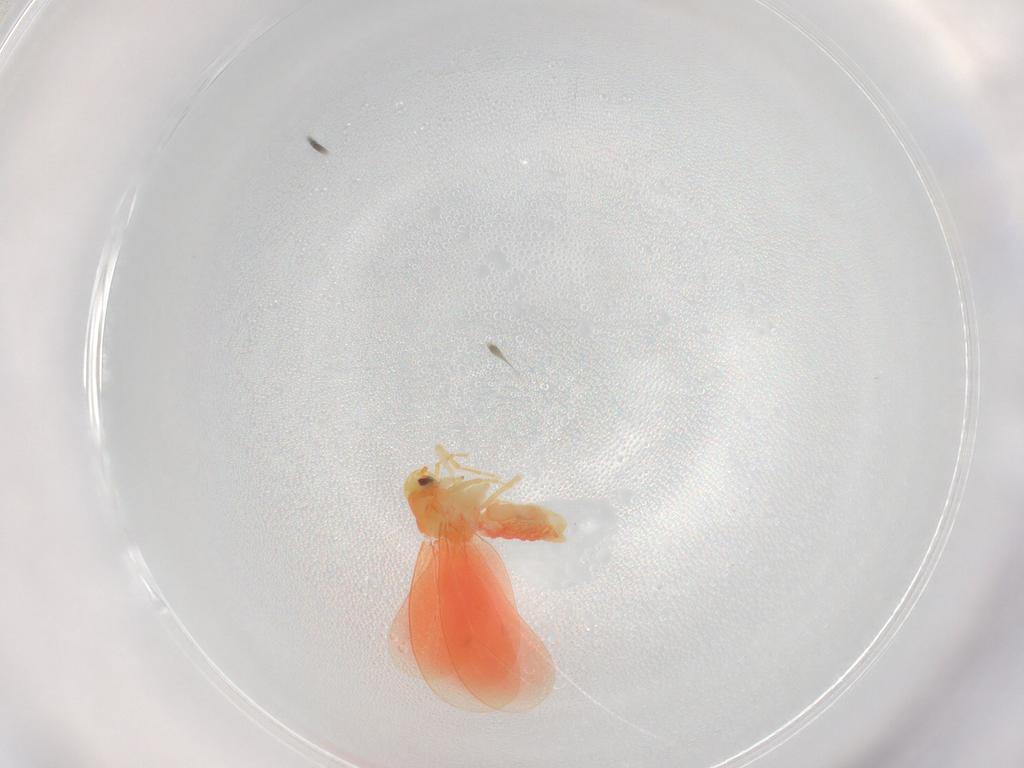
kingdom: Animalia
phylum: Arthropoda
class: Insecta
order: Hemiptera
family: Aleyrodidae
